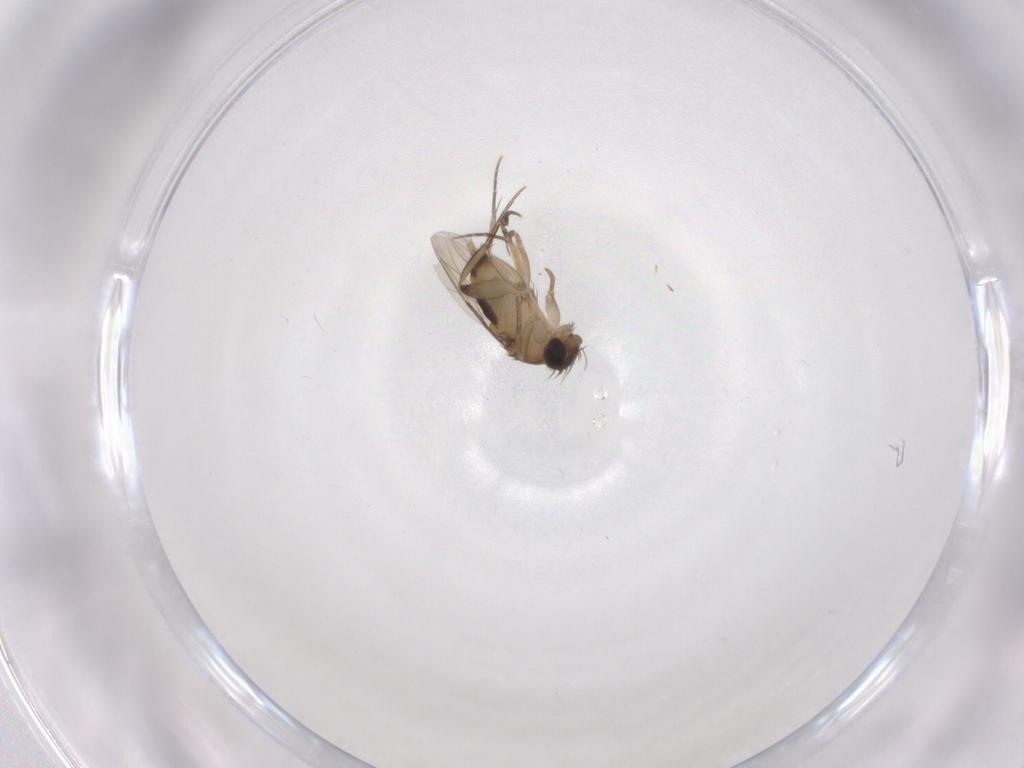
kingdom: Animalia
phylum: Arthropoda
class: Insecta
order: Diptera
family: Phoridae
